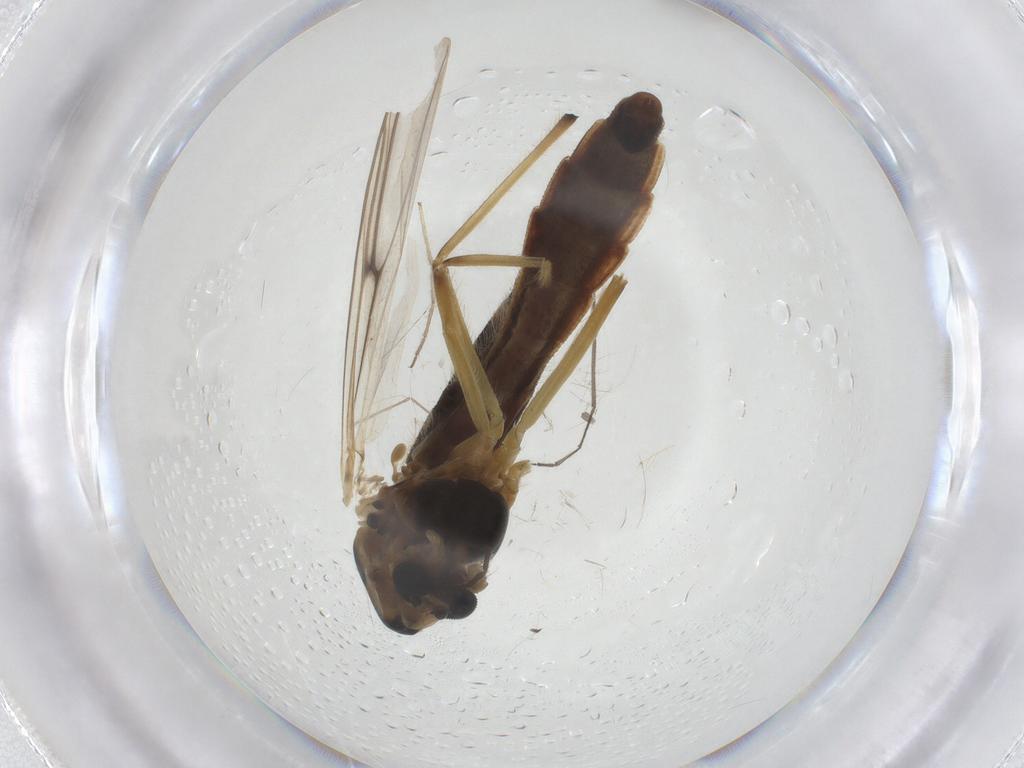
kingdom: Animalia
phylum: Arthropoda
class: Insecta
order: Diptera
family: Chironomidae
